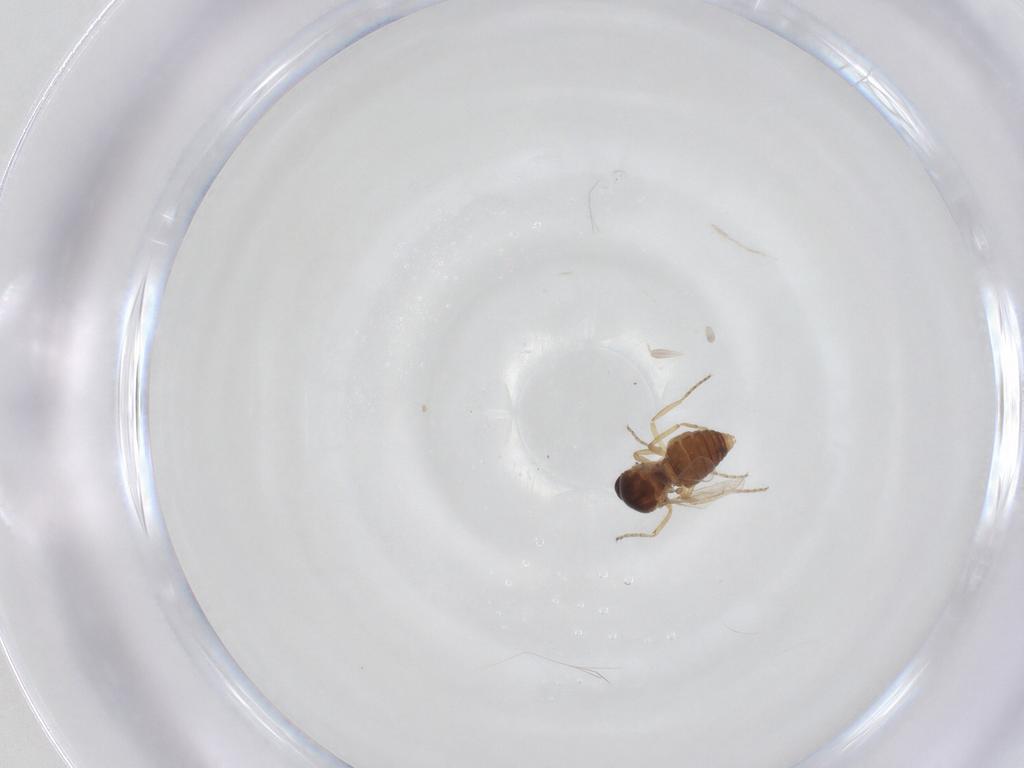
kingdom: Animalia
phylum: Arthropoda
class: Insecta
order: Diptera
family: Ceratopogonidae
